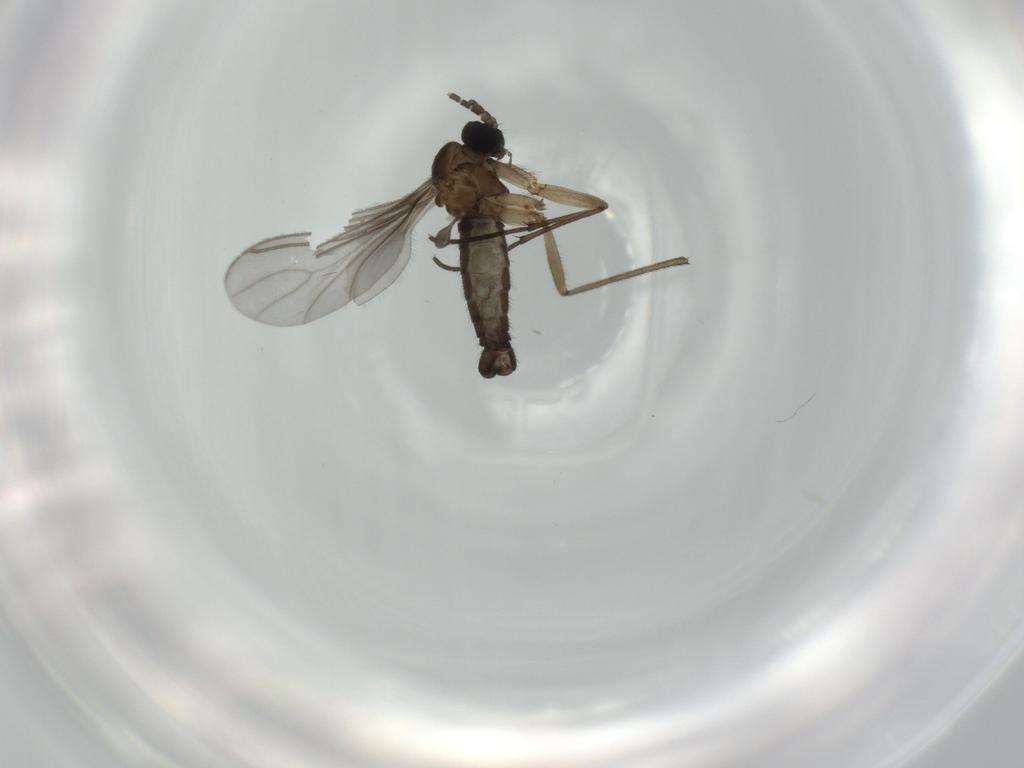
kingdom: Animalia
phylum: Arthropoda
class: Insecta
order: Diptera
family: Sciaridae
